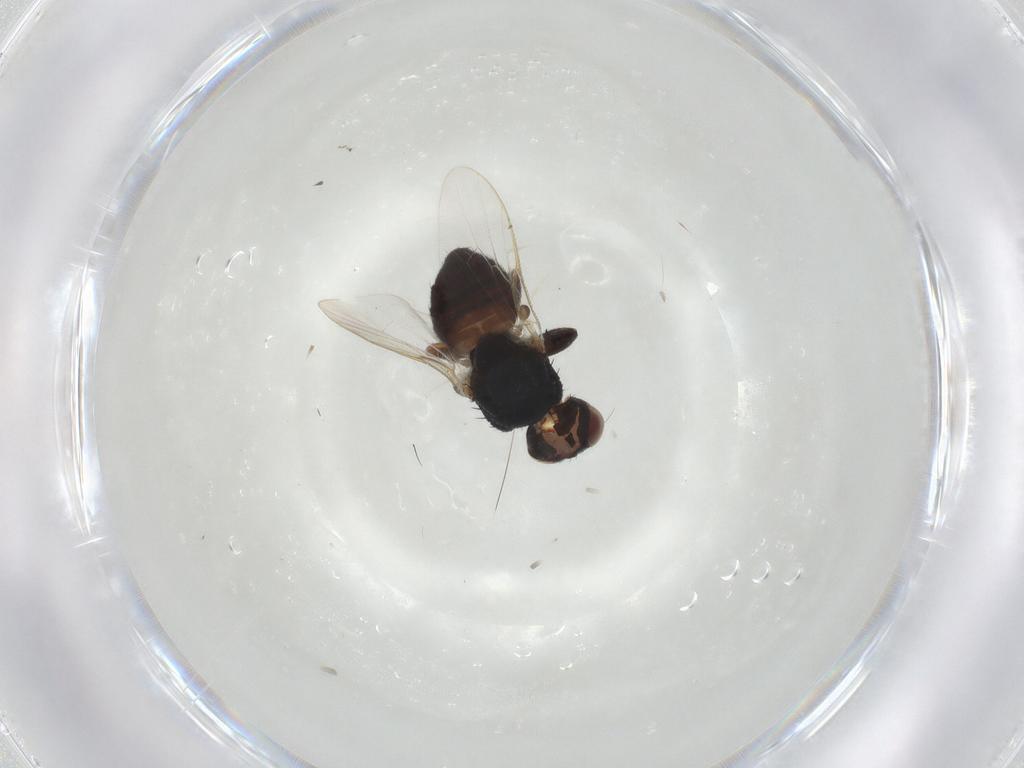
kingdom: Animalia
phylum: Arthropoda
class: Insecta
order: Diptera
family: Chloropidae
